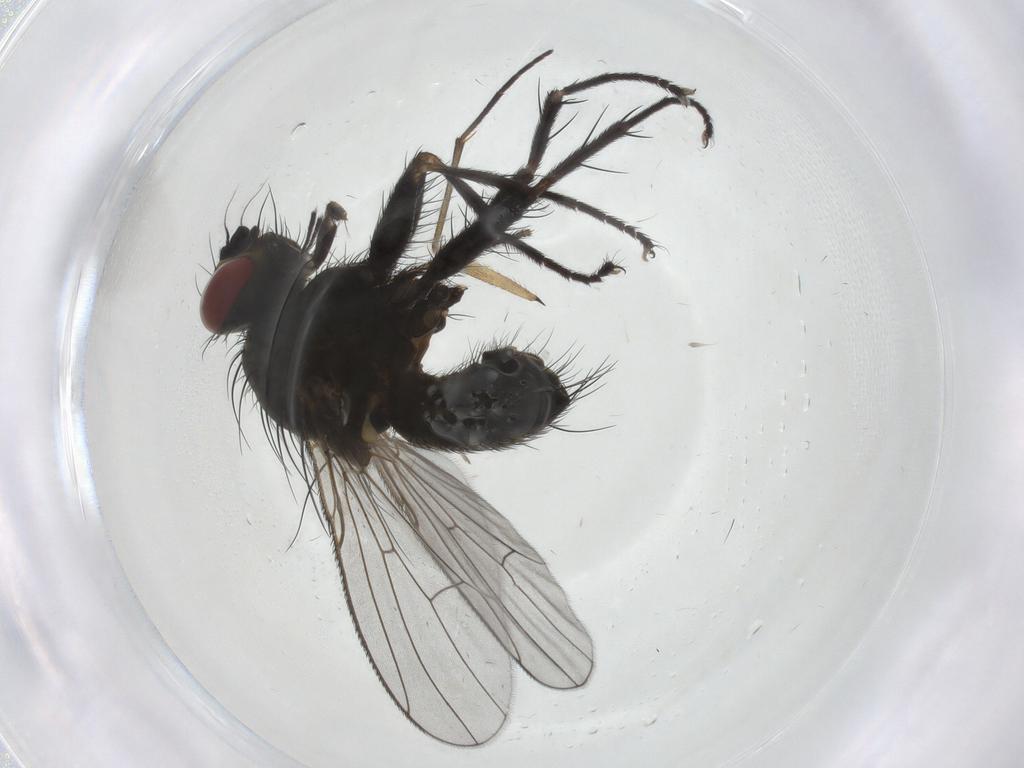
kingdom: Animalia
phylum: Arthropoda
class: Insecta
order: Diptera
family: Muscidae
